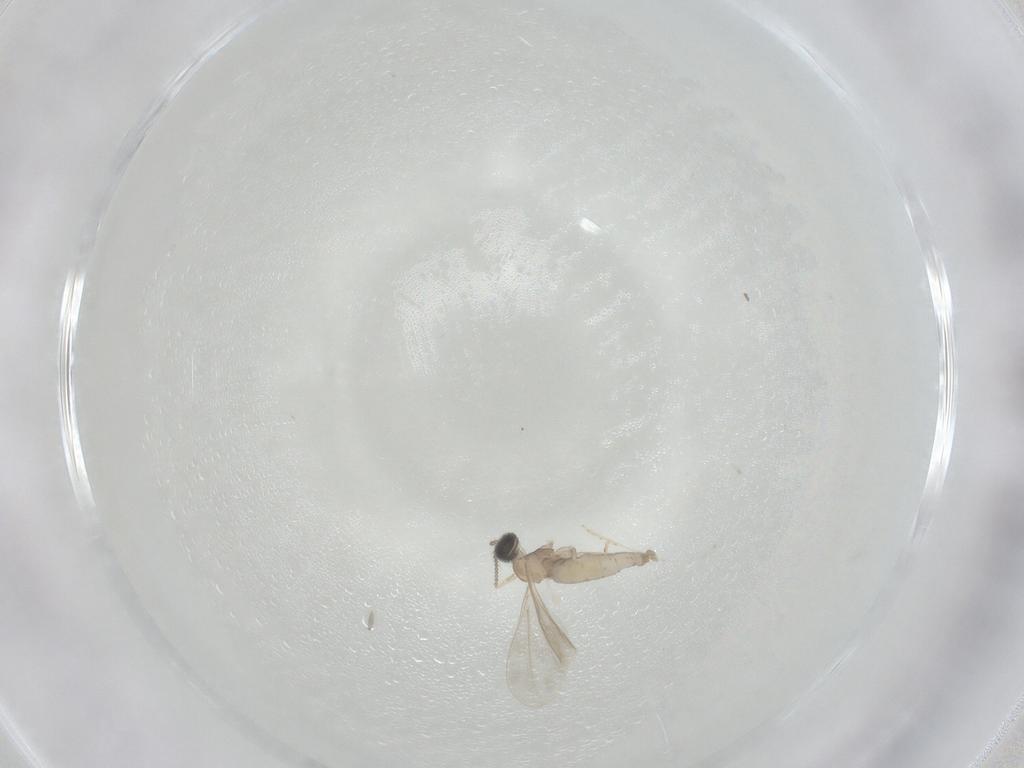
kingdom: Animalia
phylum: Arthropoda
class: Insecta
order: Diptera
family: Cecidomyiidae
